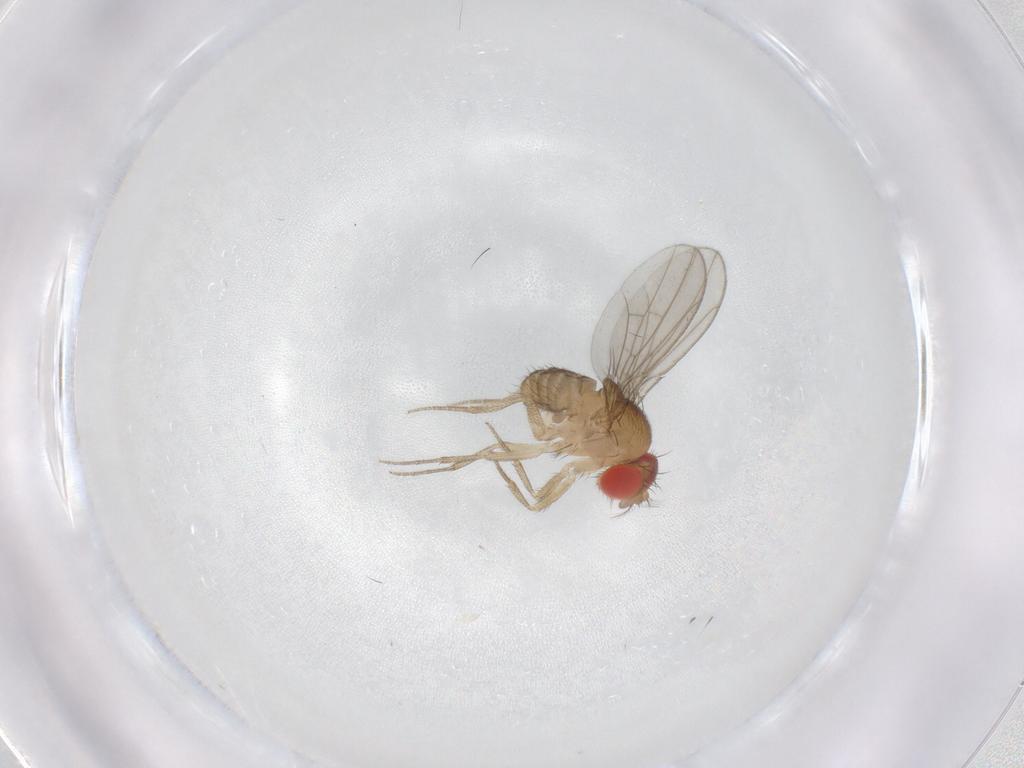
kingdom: Animalia
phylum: Arthropoda
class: Insecta
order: Diptera
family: Drosophilidae
